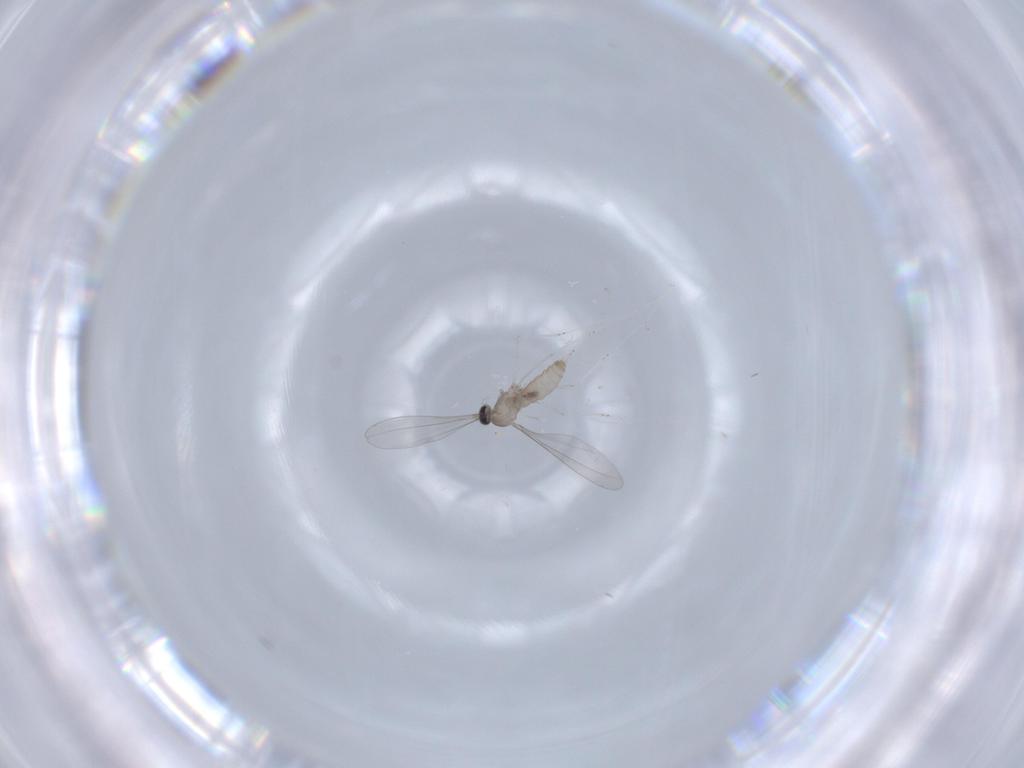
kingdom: Animalia
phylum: Arthropoda
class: Insecta
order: Diptera
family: Cecidomyiidae
